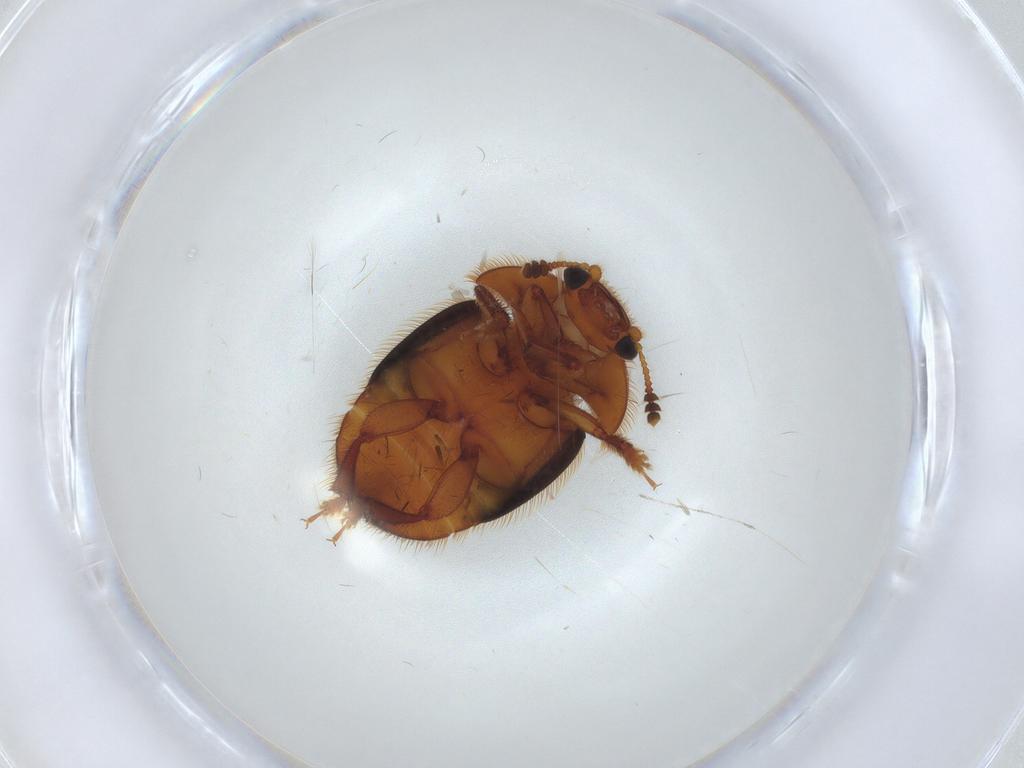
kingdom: Animalia
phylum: Arthropoda
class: Insecta
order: Coleoptera
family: Nitidulidae
